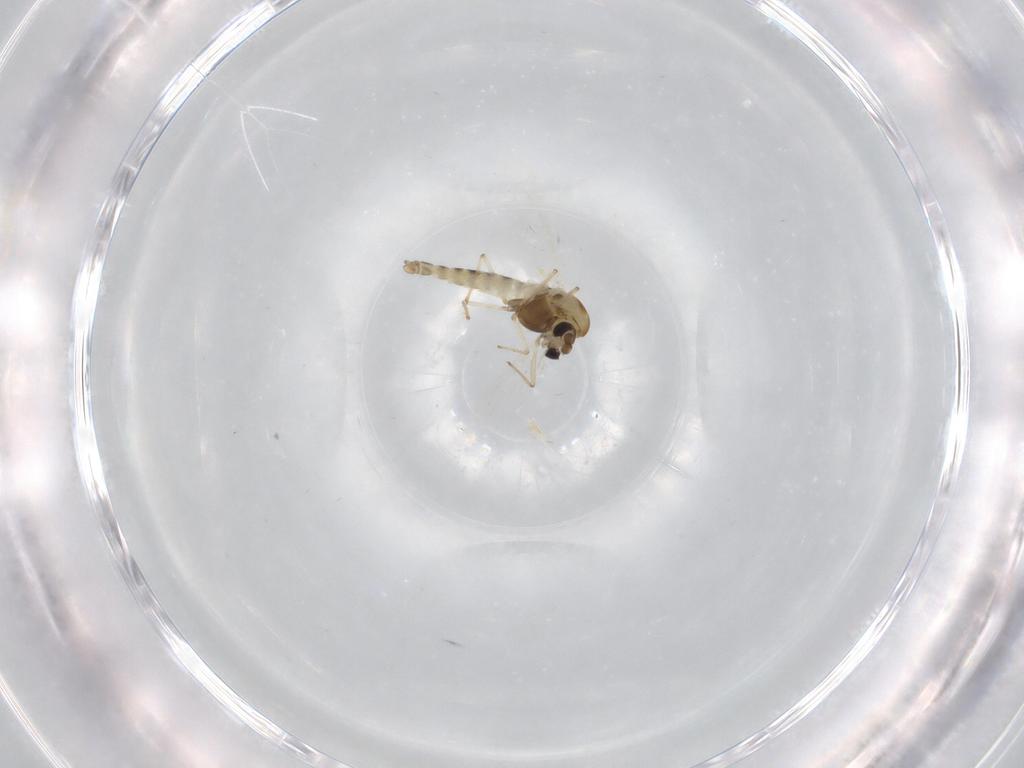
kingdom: Animalia
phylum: Arthropoda
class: Insecta
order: Diptera
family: Chironomidae
